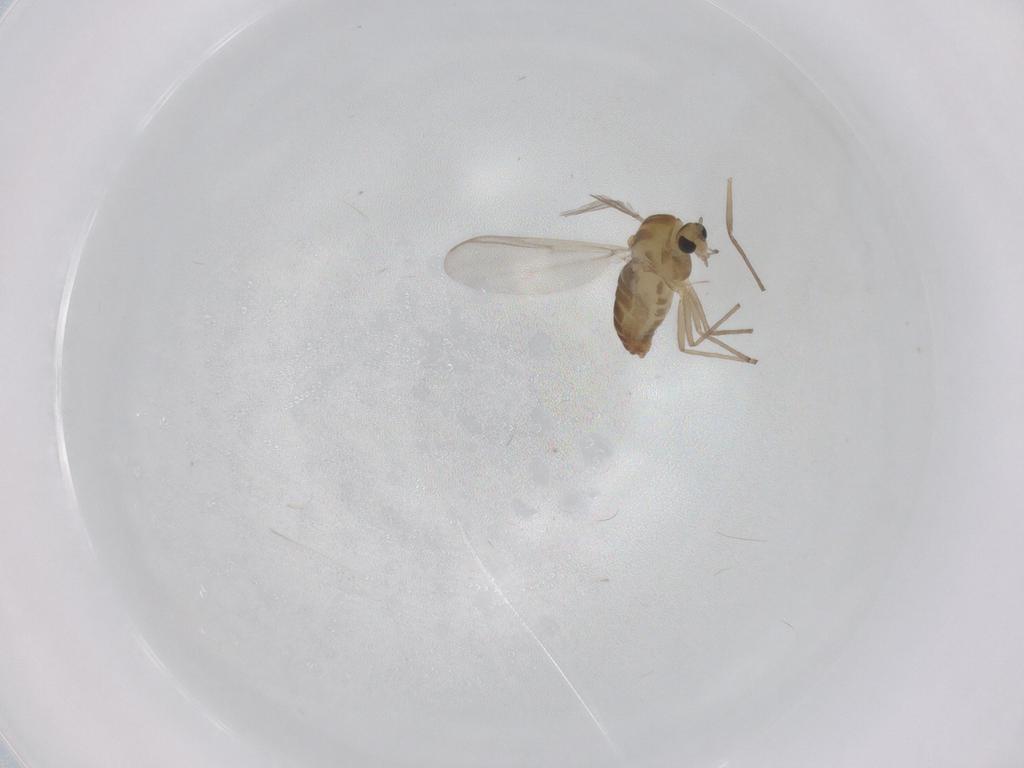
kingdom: Animalia
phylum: Arthropoda
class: Insecta
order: Diptera
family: Chironomidae
